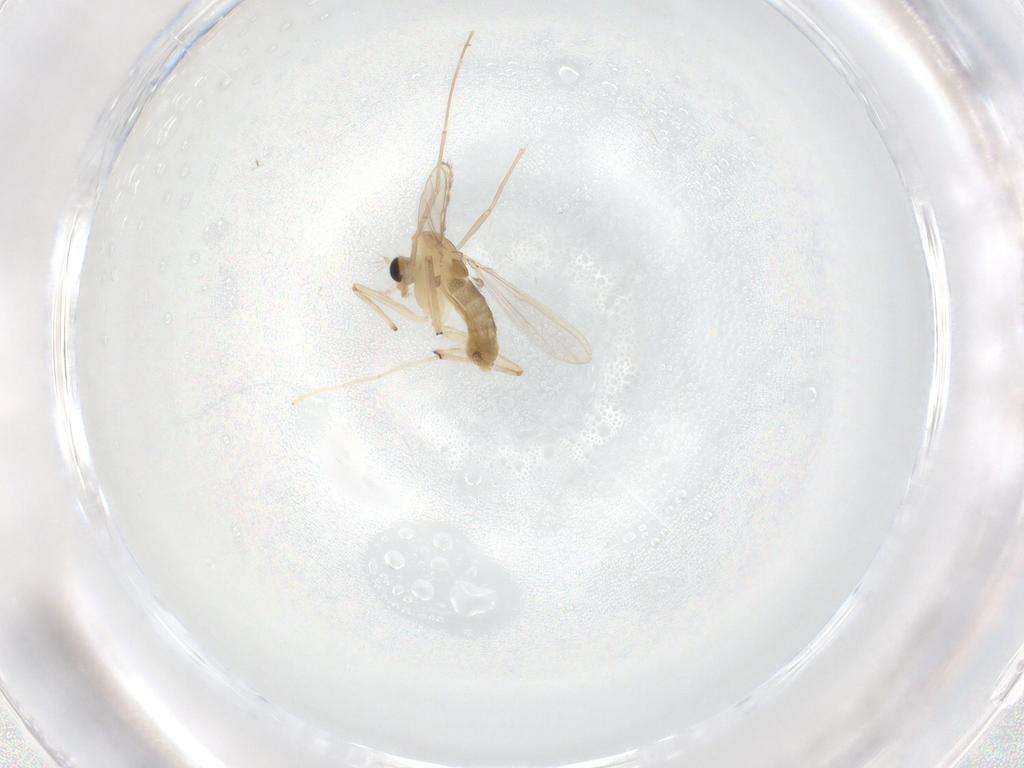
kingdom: Animalia
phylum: Arthropoda
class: Insecta
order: Diptera
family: Chironomidae
